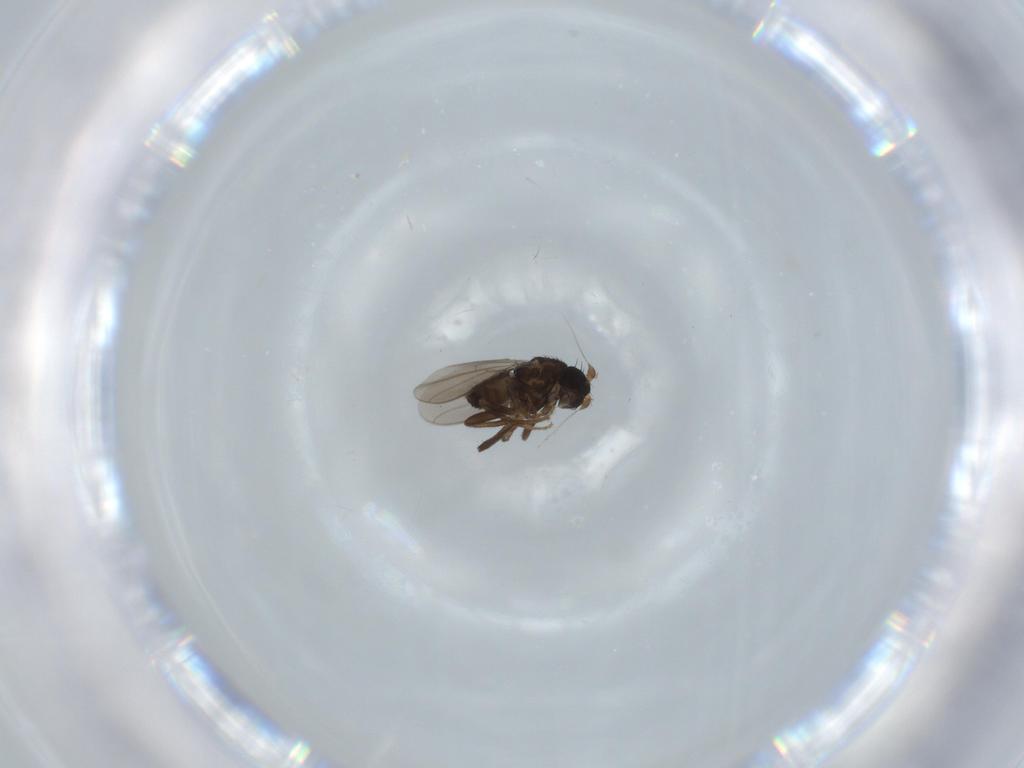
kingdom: Animalia
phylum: Arthropoda
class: Insecta
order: Diptera
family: Sphaeroceridae
